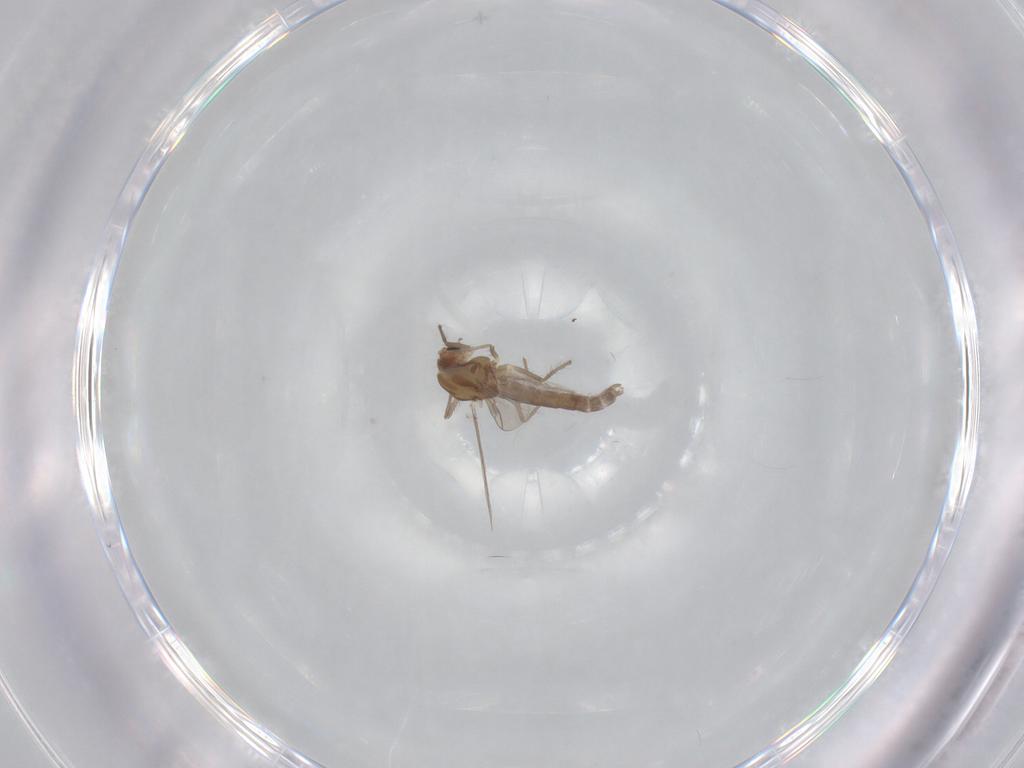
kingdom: Animalia
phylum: Arthropoda
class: Insecta
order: Diptera
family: Chironomidae
